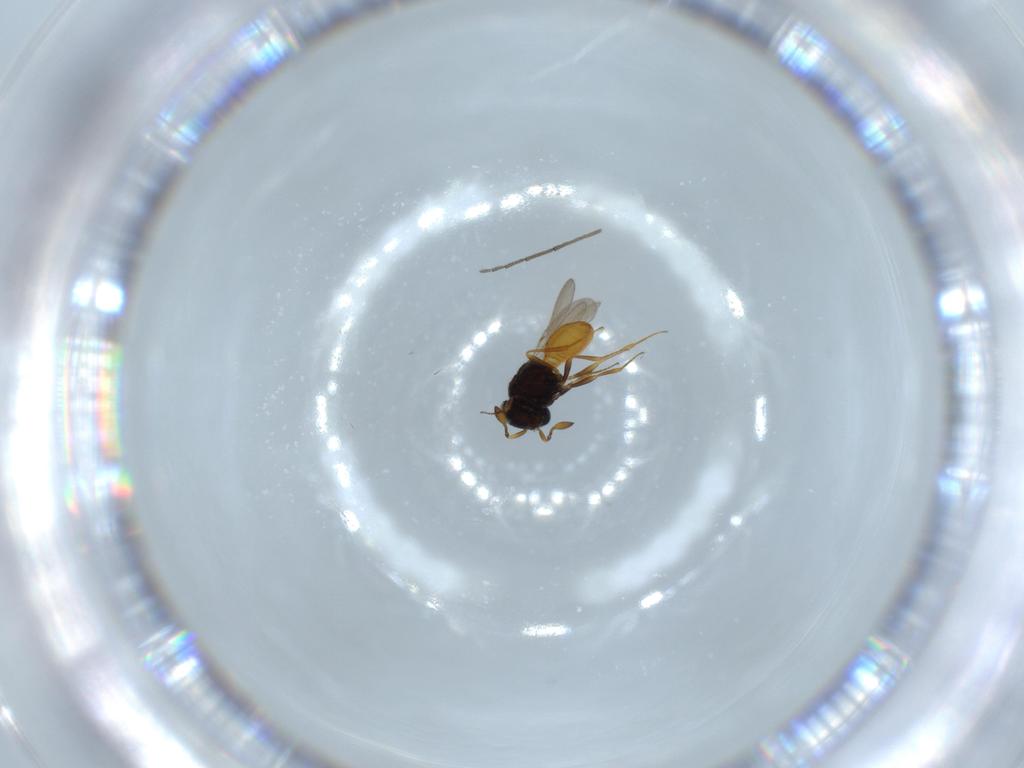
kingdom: Animalia
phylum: Arthropoda
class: Insecta
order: Hymenoptera
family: Scelionidae
